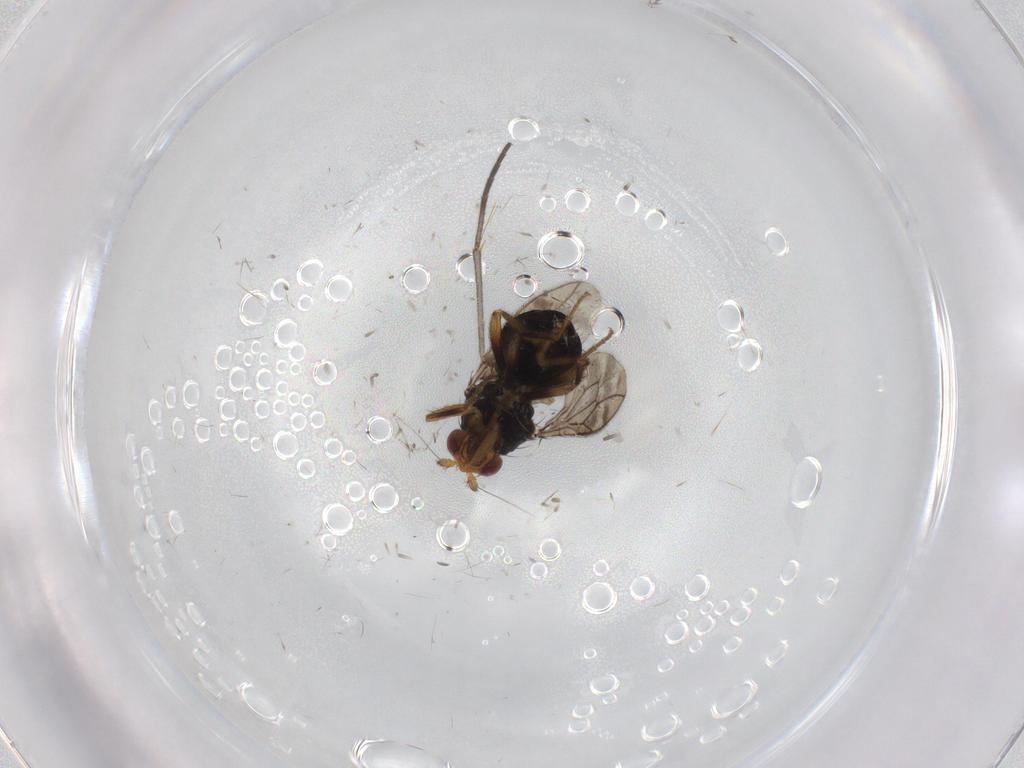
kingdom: Animalia
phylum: Arthropoda
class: Insecta
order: Diptera
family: Sphaeroceridae
